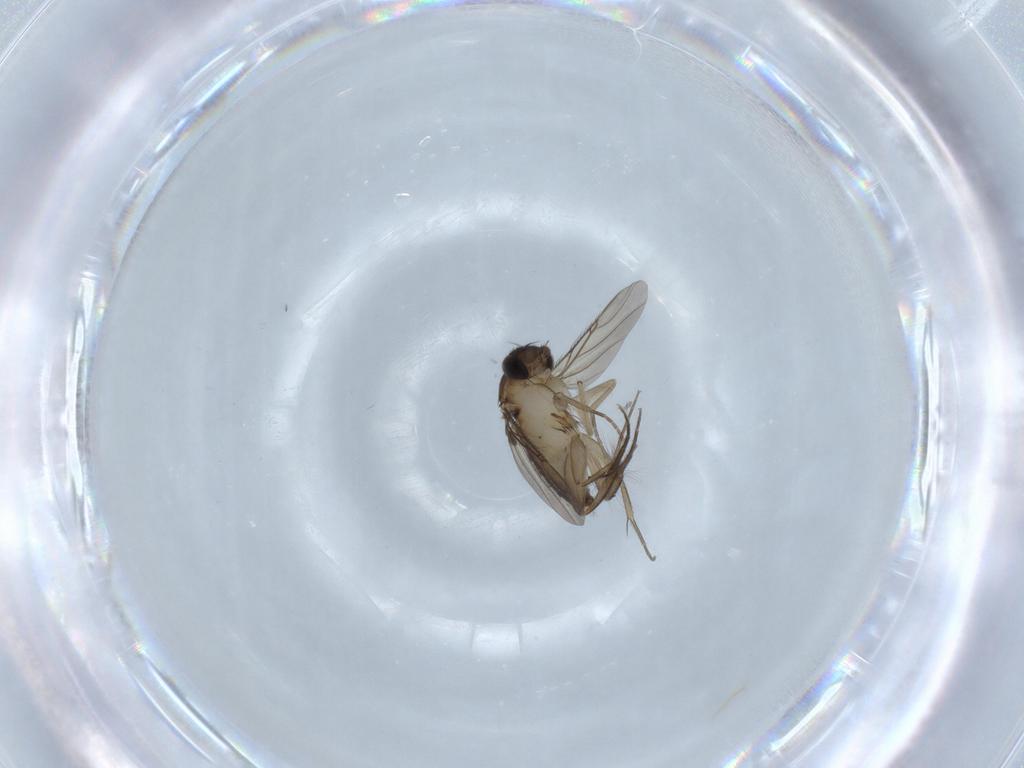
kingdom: Animalia
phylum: Arthropoda
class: Insecta
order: Diptera
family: Phoridae
